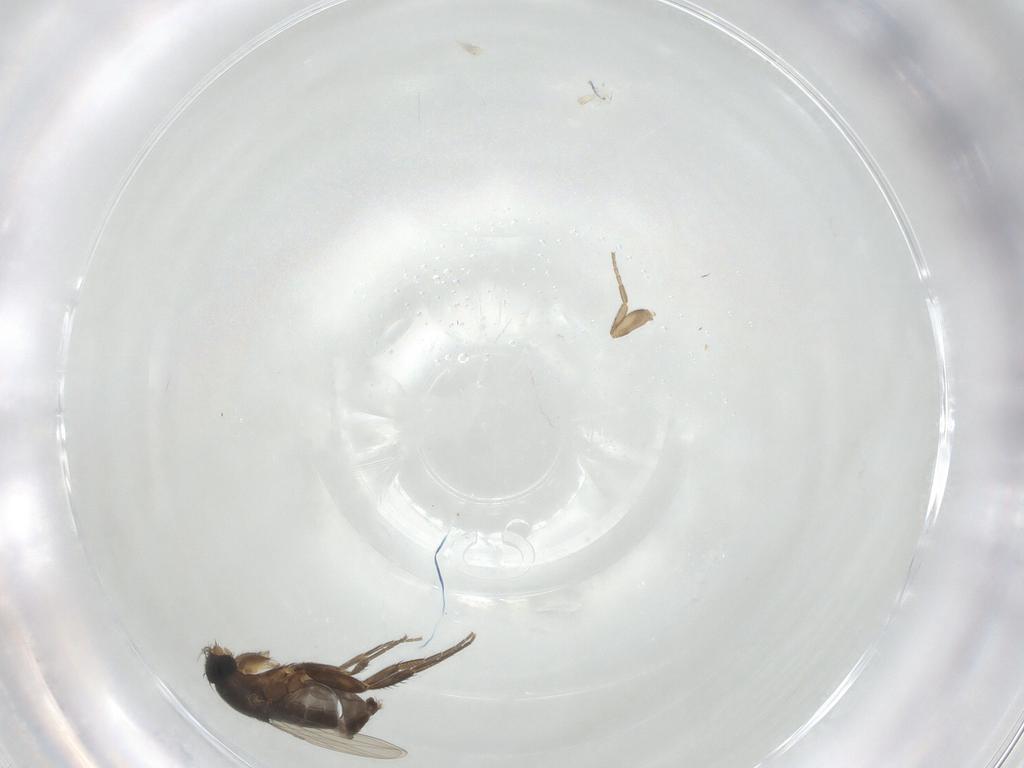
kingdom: Animalia
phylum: Arthropoda
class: Insecta
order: Diptera
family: Phoridae
